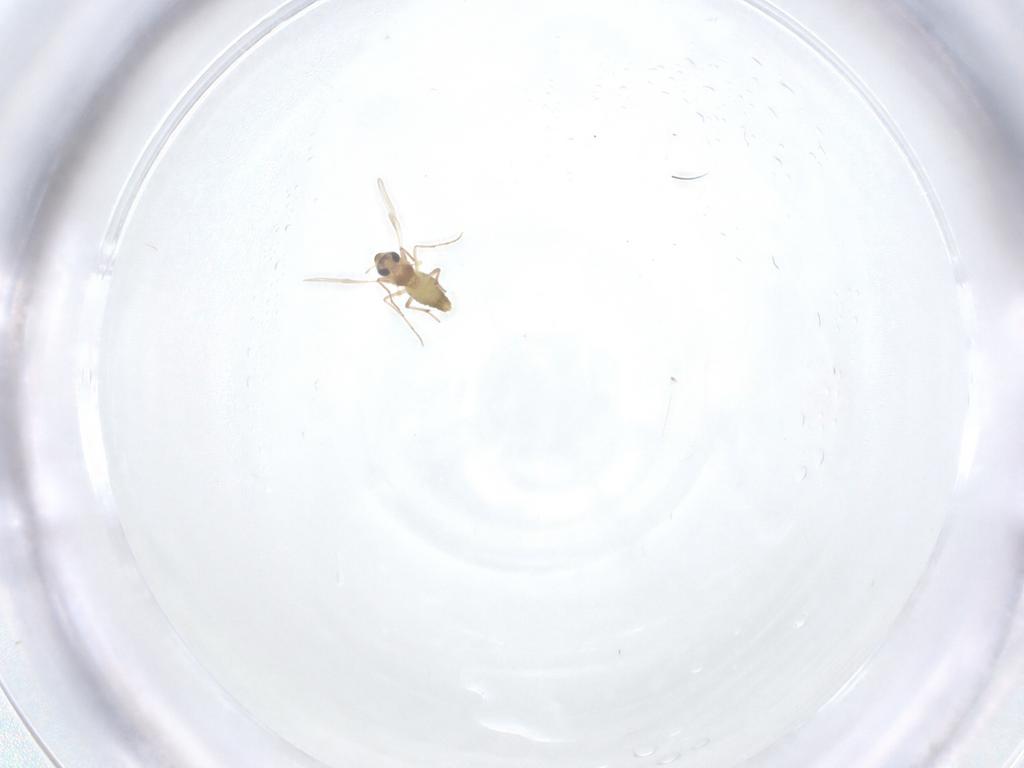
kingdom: Animalia
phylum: Arthropoda
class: Insecta
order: Diptera
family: Chironomidae
